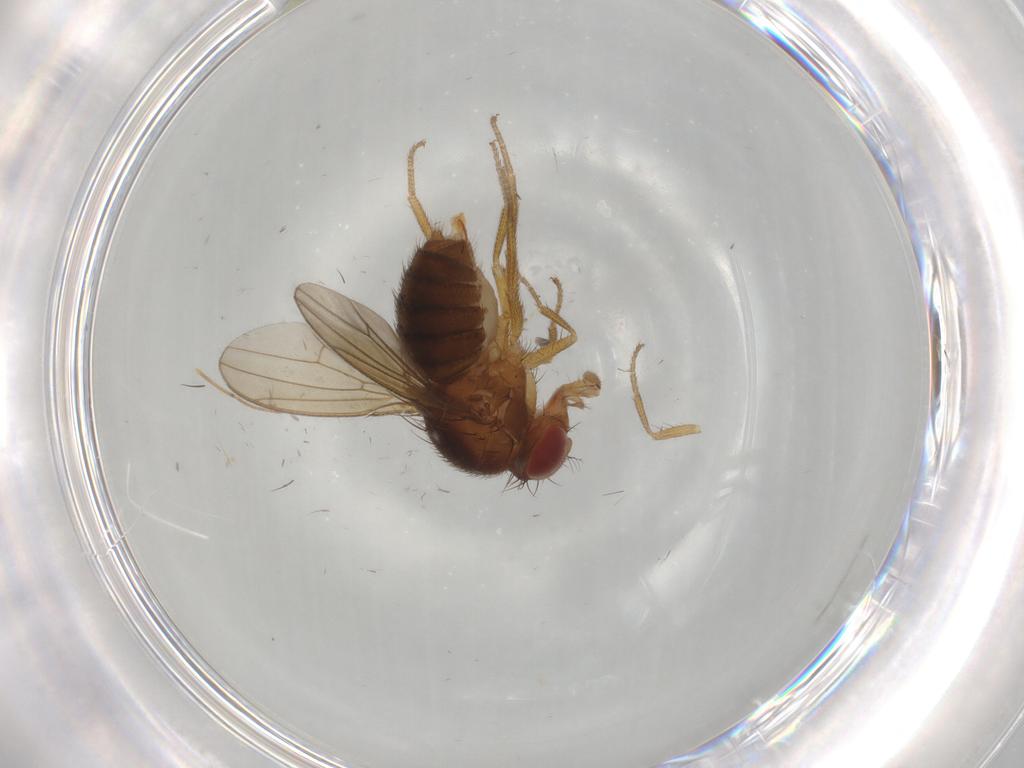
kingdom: Animalia
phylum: Arthropoda
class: Insecta
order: Diptera
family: Drosophilidae
